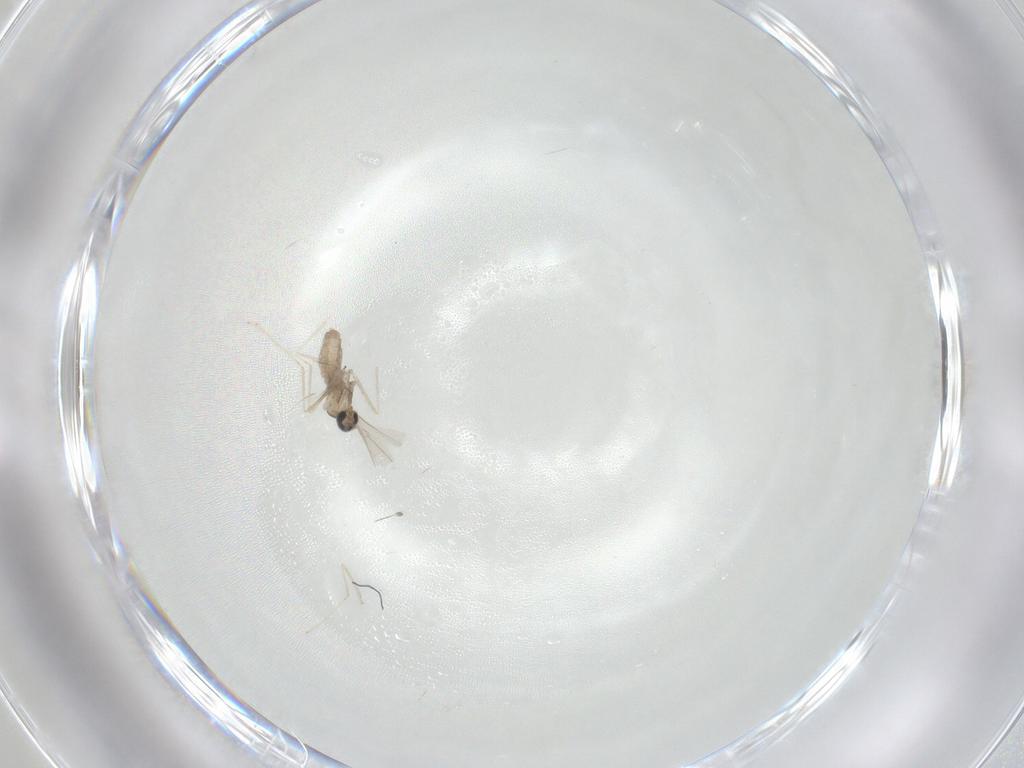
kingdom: Animalia
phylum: Arthropoda
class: Insecta
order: Diptera
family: Cecidomyiidae
